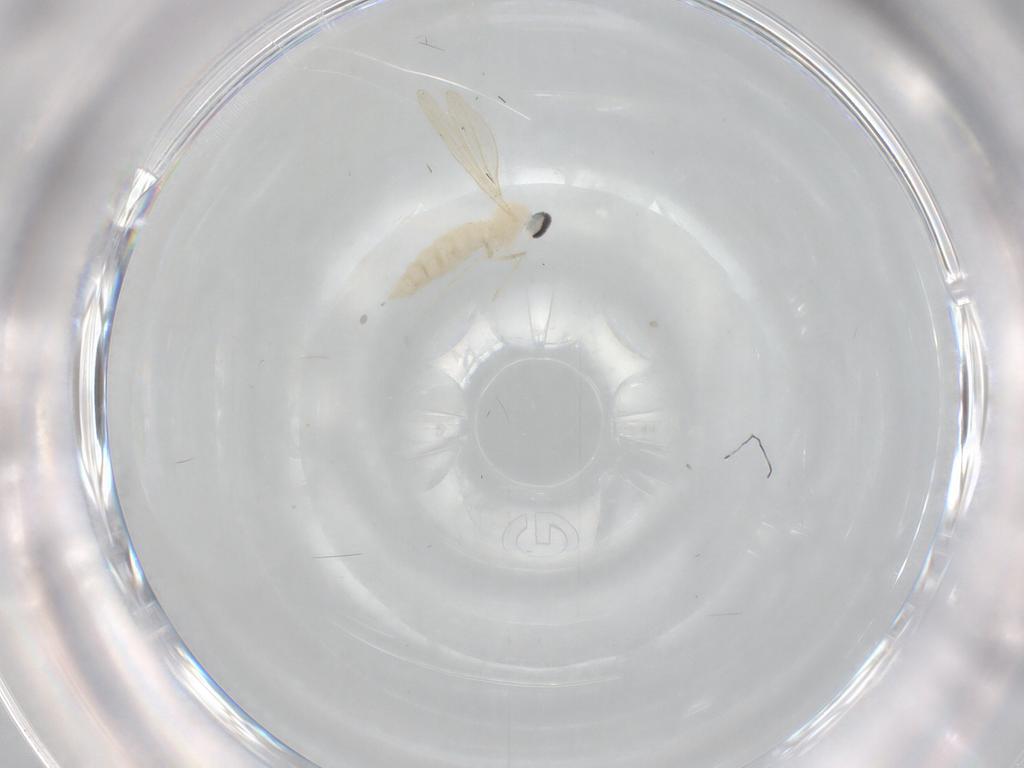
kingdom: Animalia
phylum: Arthropoda
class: Insecta
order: Diptera
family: Cecidomyiidae
